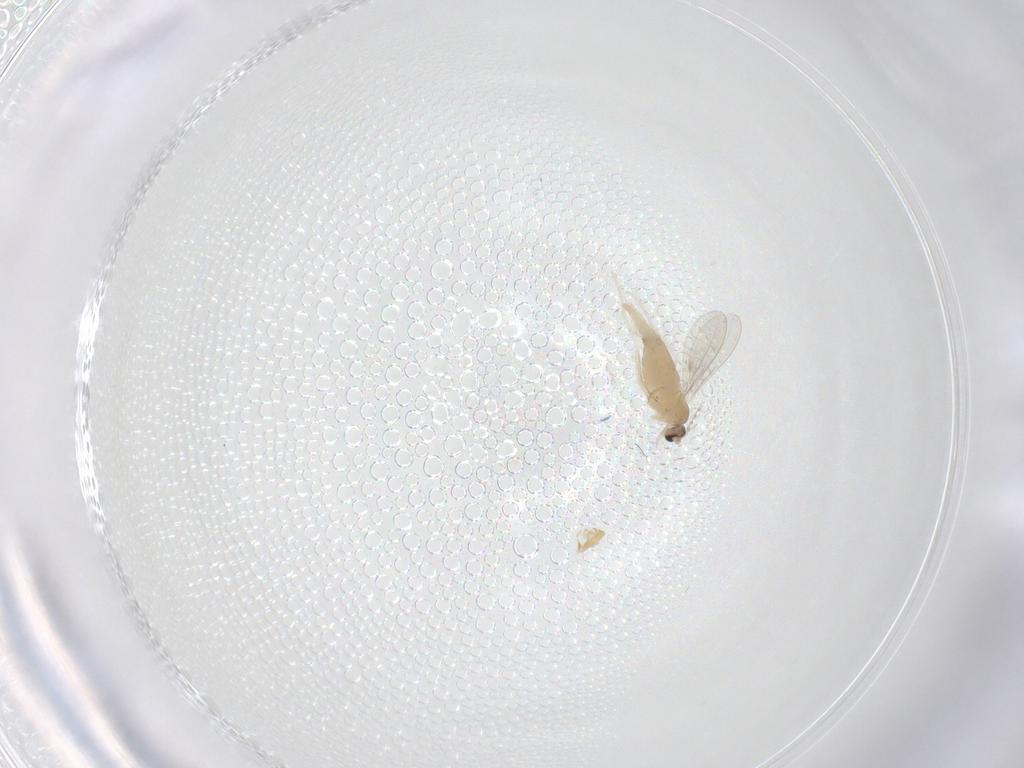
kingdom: Animalia
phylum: Arthropoda
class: Insecta
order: Diptera
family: Cecidomyiidae
